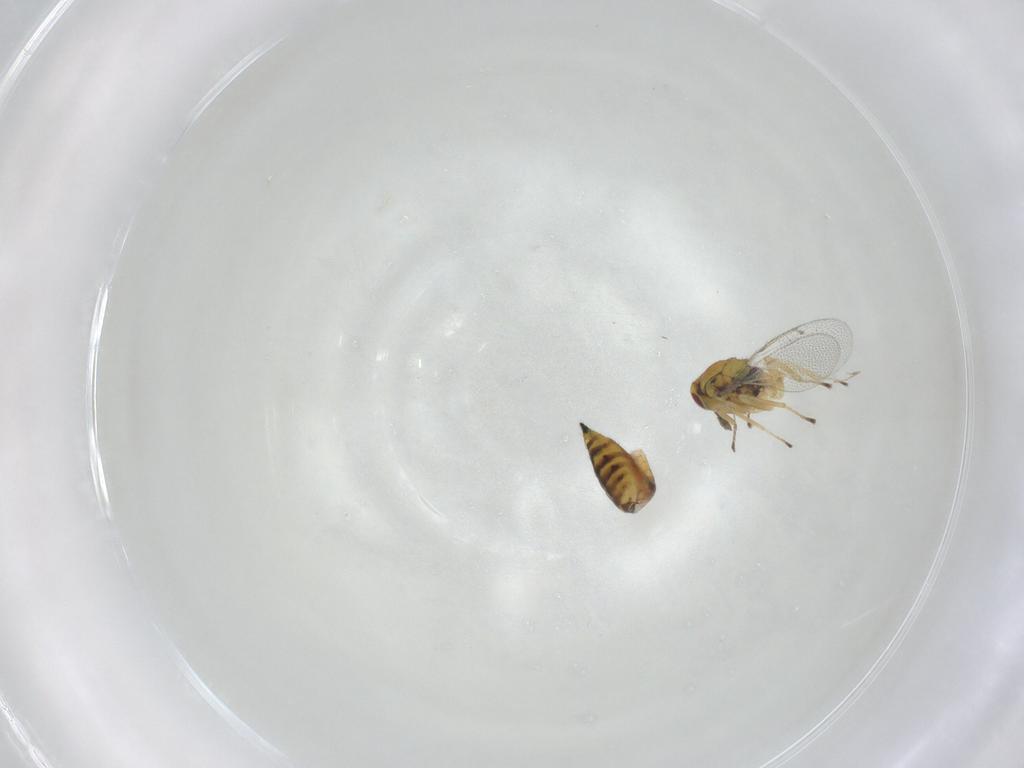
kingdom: Animalia
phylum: Arthropoda
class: Insecta
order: Hymenoptera
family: Eulophidae
